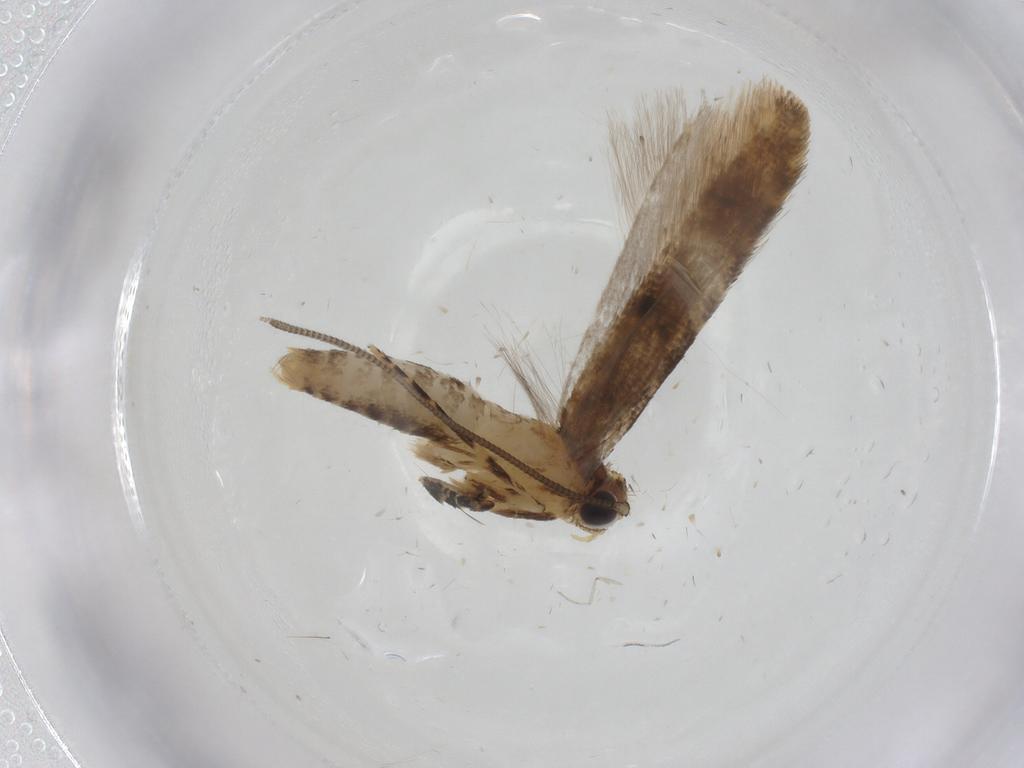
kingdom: Animalia
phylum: Arthropoda
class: Insecta
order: Lepidoptera
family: Tineidae
